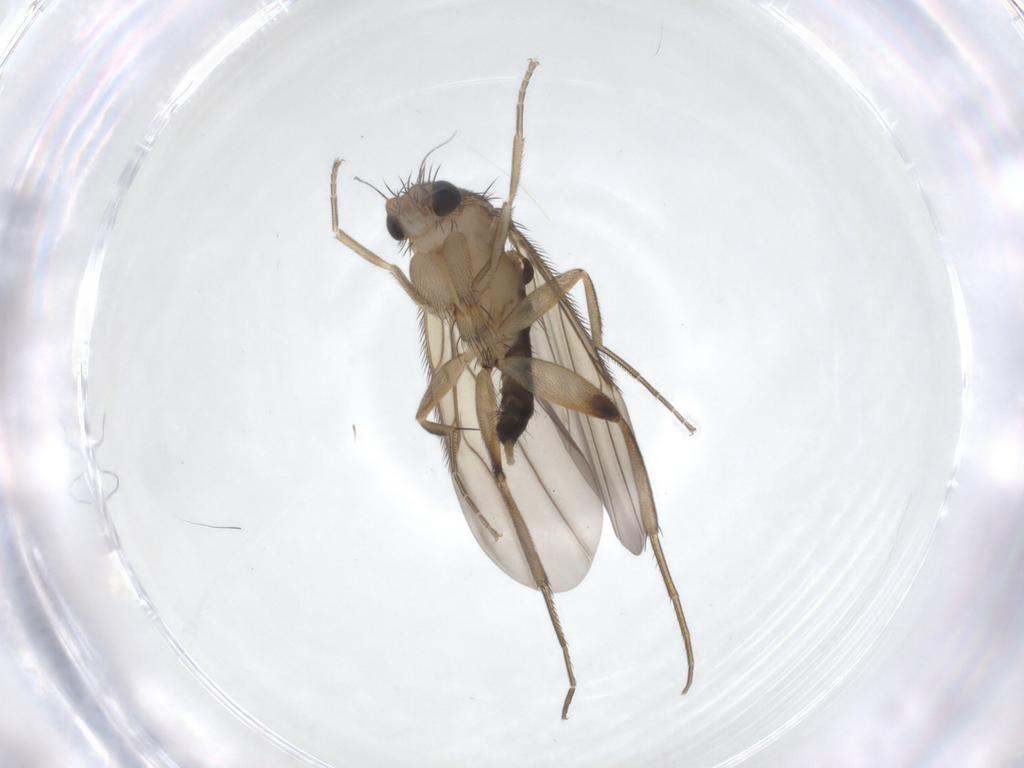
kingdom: Animalia
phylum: Arthropoda
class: Insecta
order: Diptera
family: Phoridae
